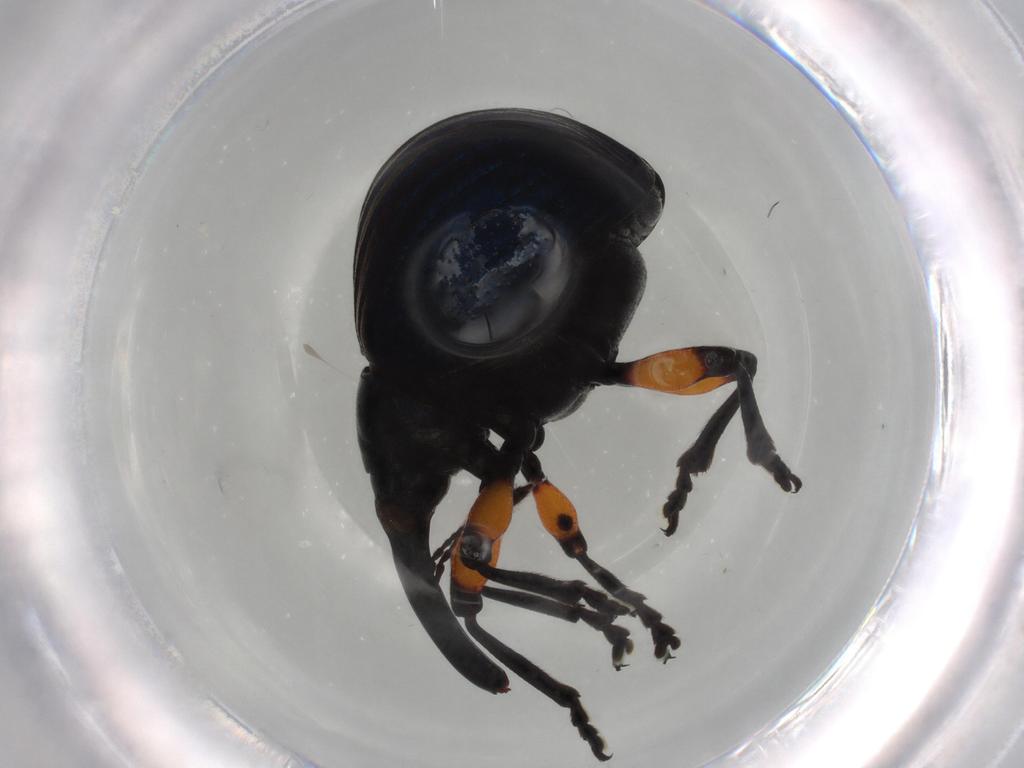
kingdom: Animalia
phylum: Arthropoda
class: Insecta
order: Coleoptera
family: Brentidae
